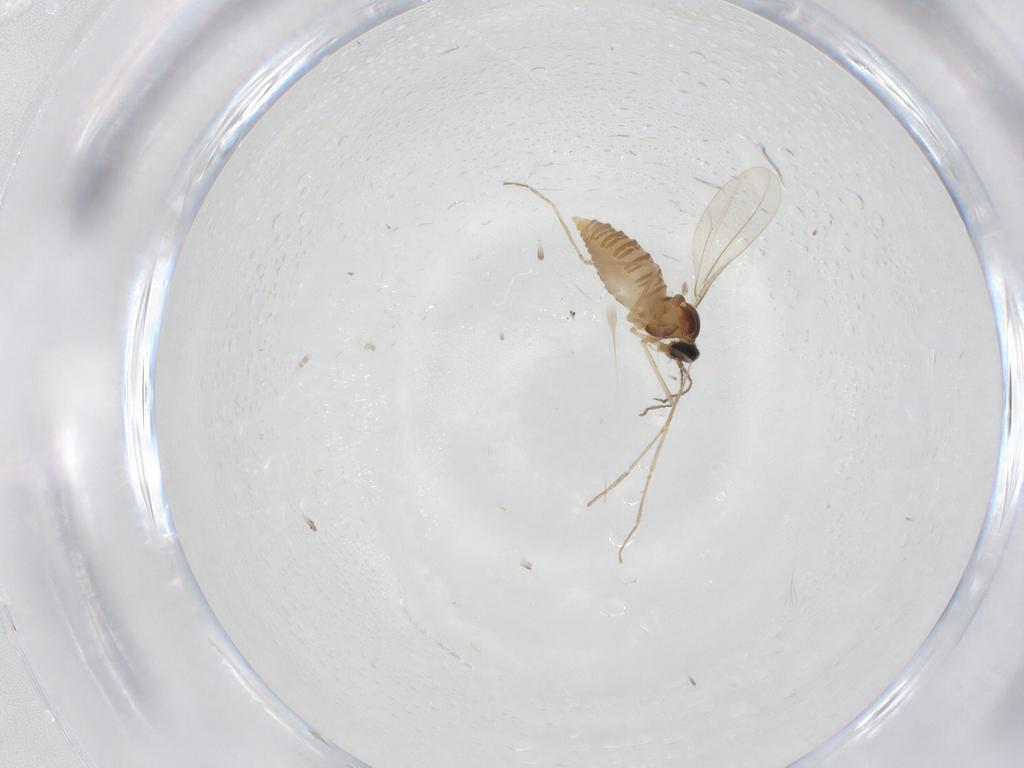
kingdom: Animalia
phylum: Arthropoda
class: Insecta
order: Diptera
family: Cecidomyiidae
